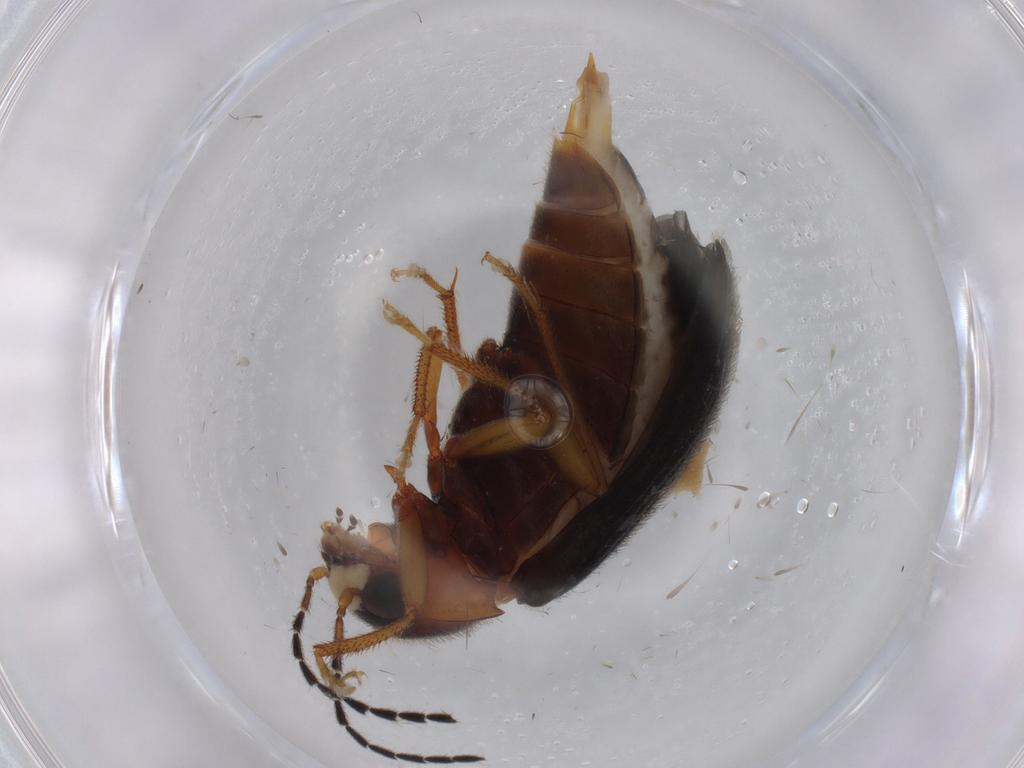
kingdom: Animalia
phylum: Arthropoda
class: Insecta
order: Coleoptera
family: Ptilodactylidae
